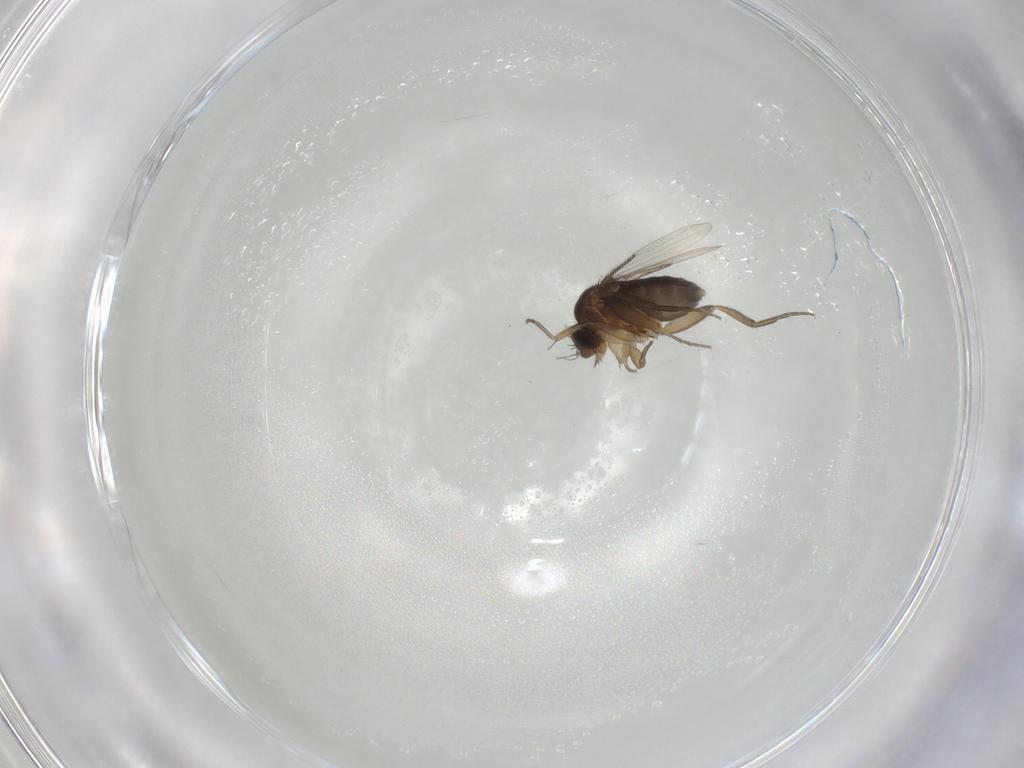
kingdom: Animalia
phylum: Arthropoda
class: Insecta
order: Diptera
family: Phoridae
